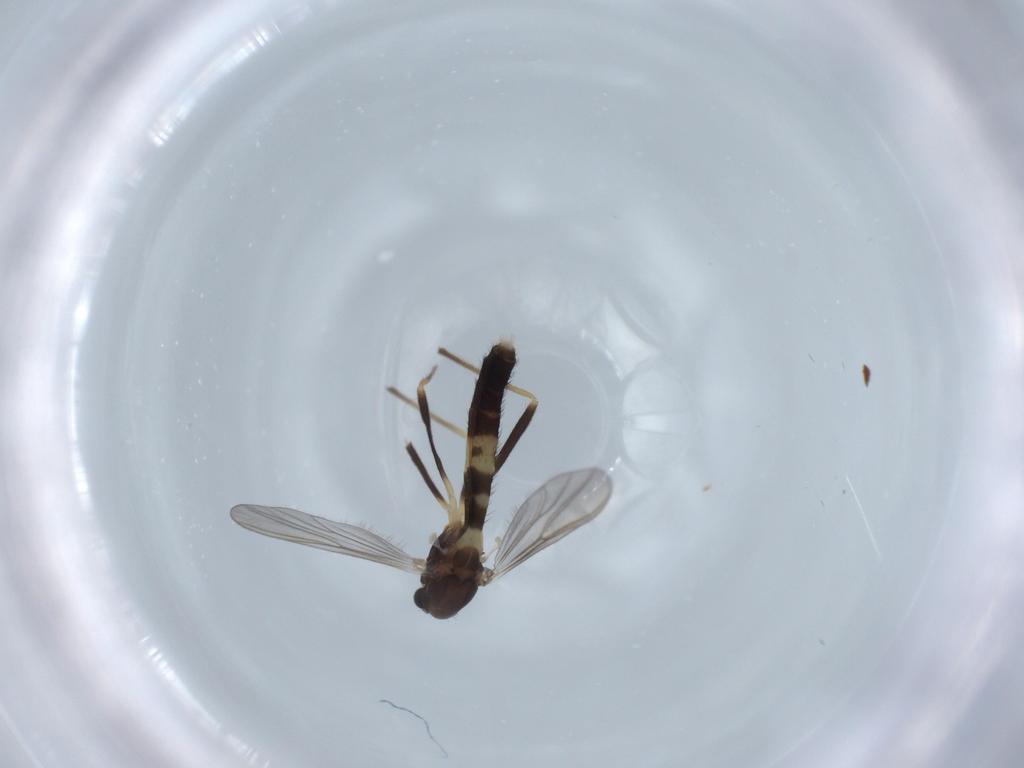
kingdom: Animalia
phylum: Arthropoda
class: Insecta
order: Diptera
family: Chironomidae
